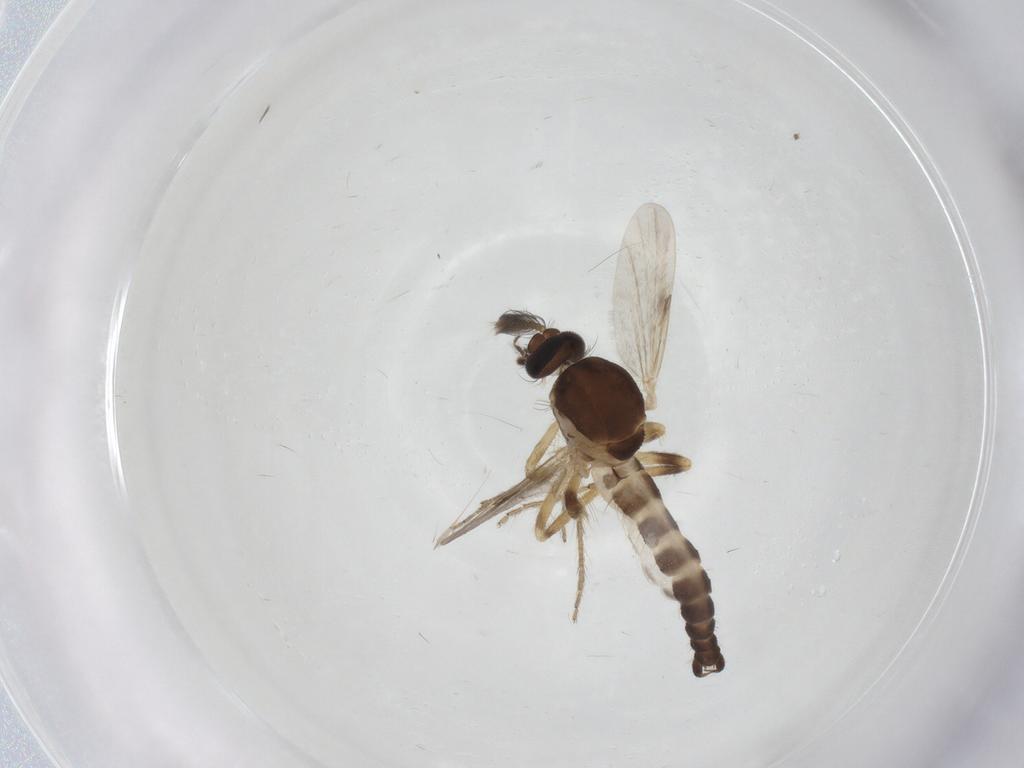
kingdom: Animalia
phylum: Arthropoda
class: Insecta
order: Diptera
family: Ceratopogonidae
